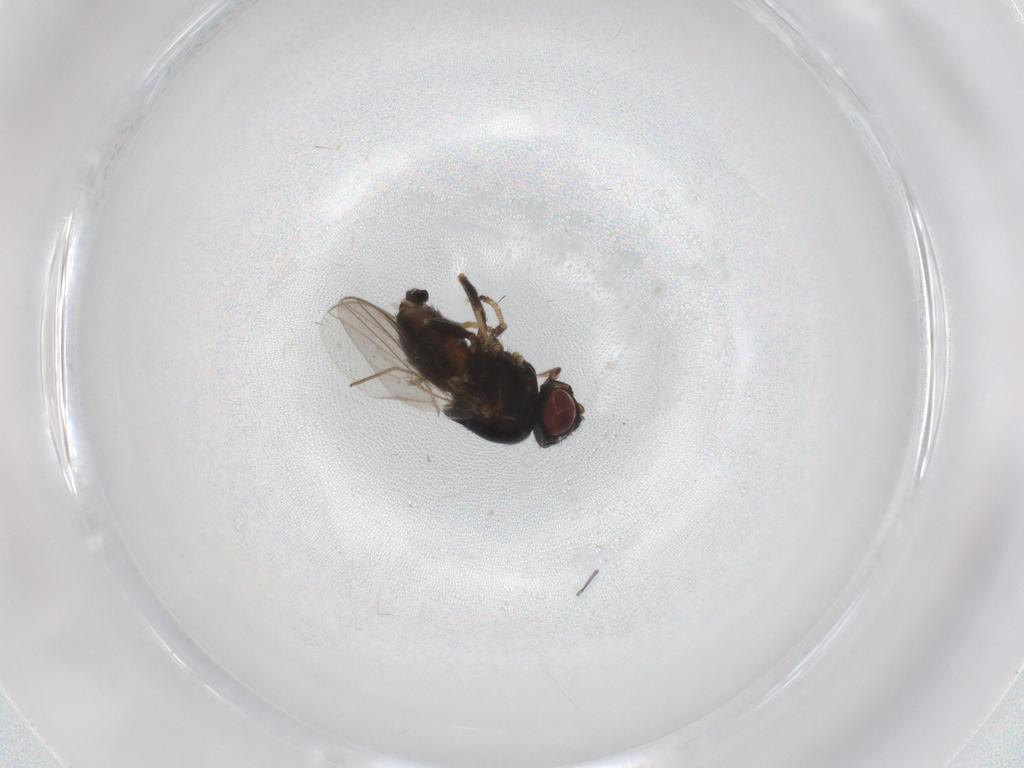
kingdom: Animalia
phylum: Arthropoda
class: Insecta
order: Diptera
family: Chloropidae
